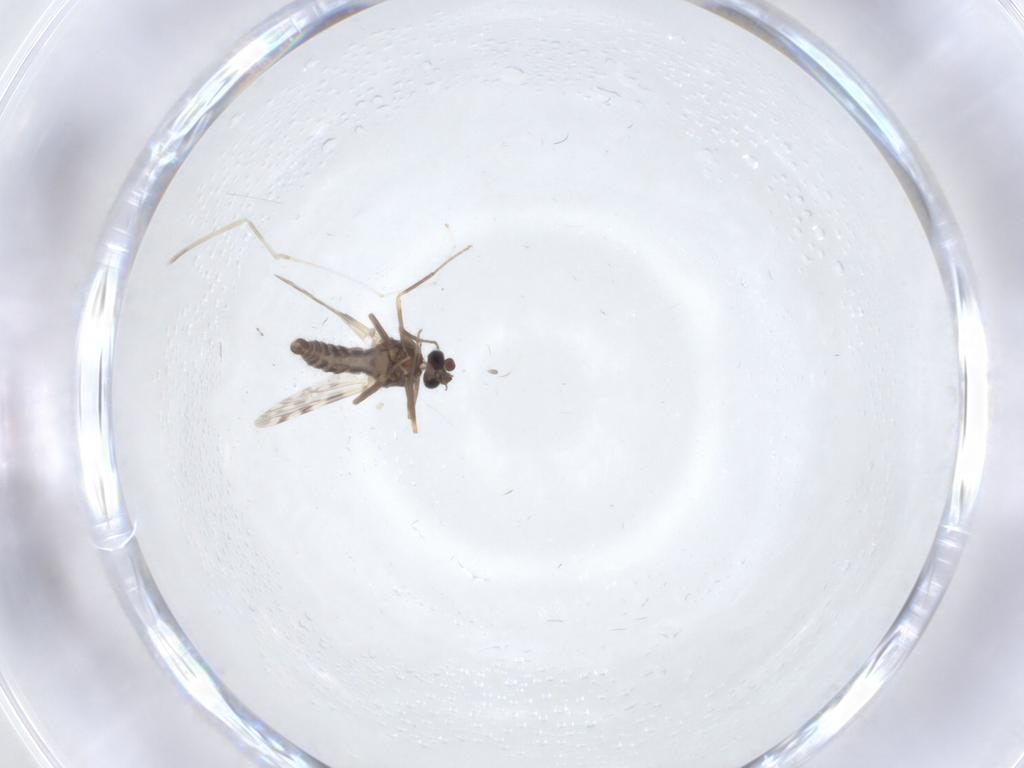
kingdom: Animalia
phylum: Arthropoda
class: Insecta
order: Diptera
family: Ceratopogonidae
